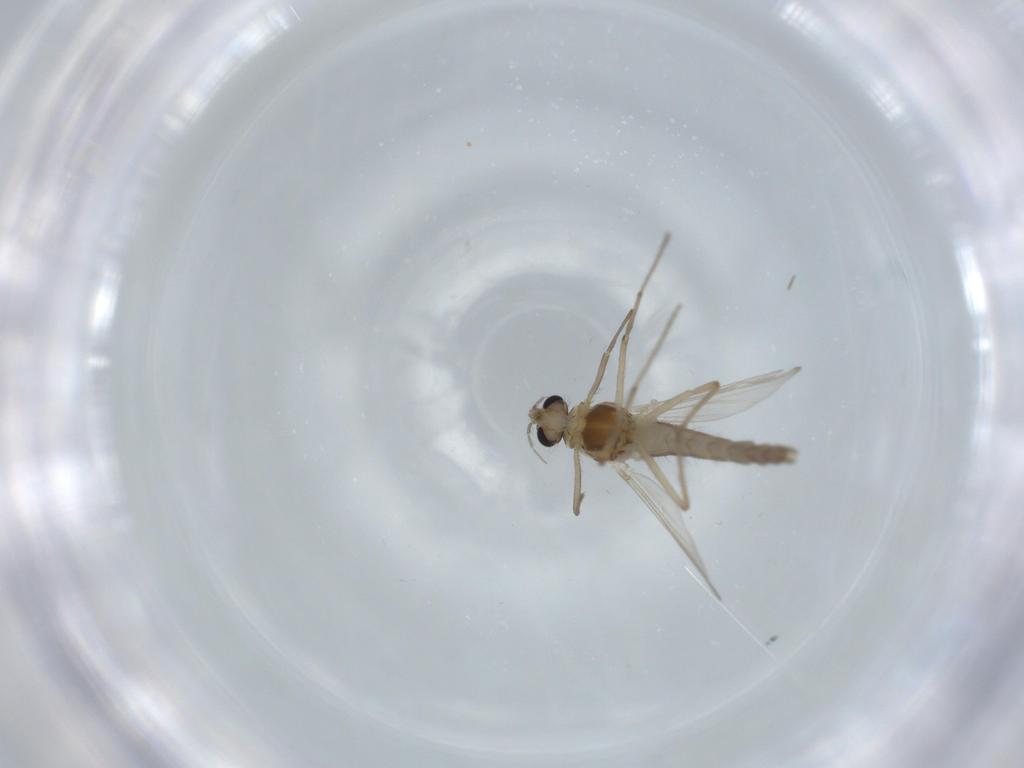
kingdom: Animalia
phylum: Arthropoda
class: Insecta
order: Diptera
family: Chironomidae
